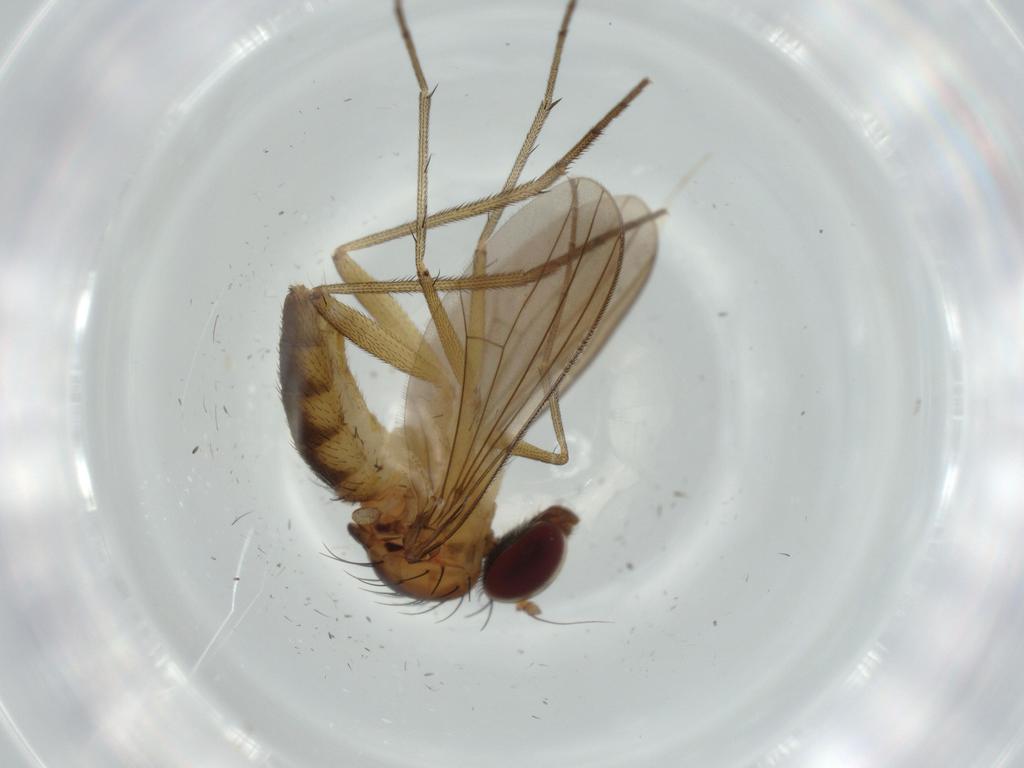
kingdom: Animalia
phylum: Arthropoda
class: Insecta
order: Diptera
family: Dolichopodidae
